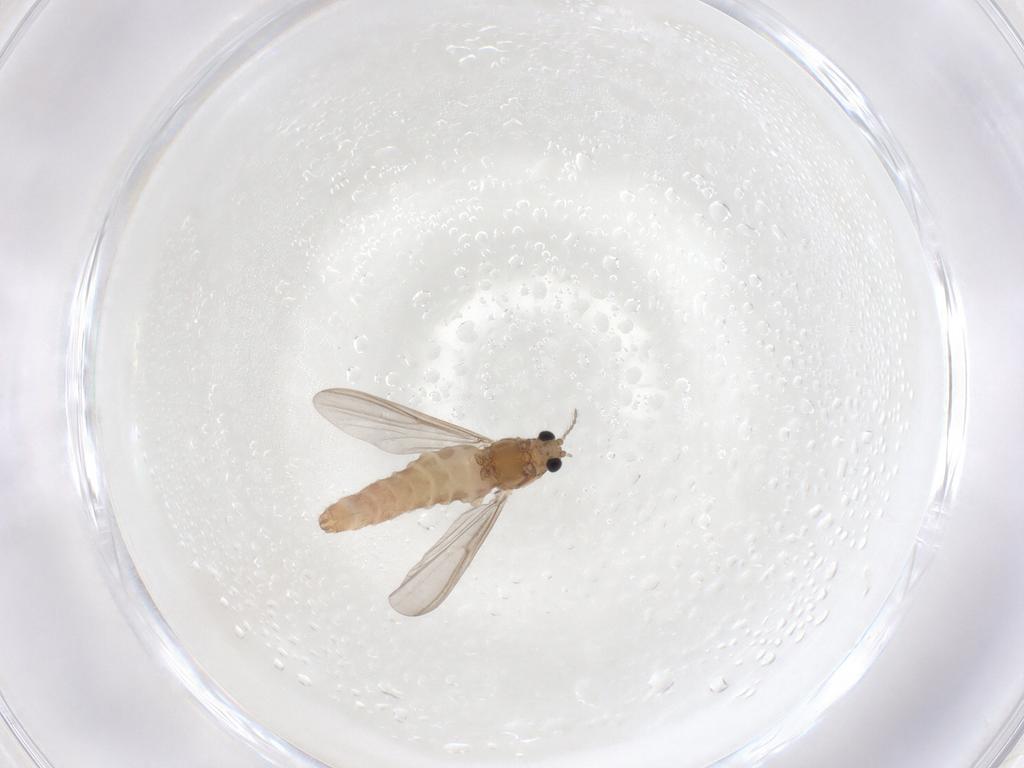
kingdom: Animalia
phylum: Arthropoda
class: Insecta
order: Diptera
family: Chironomidae
